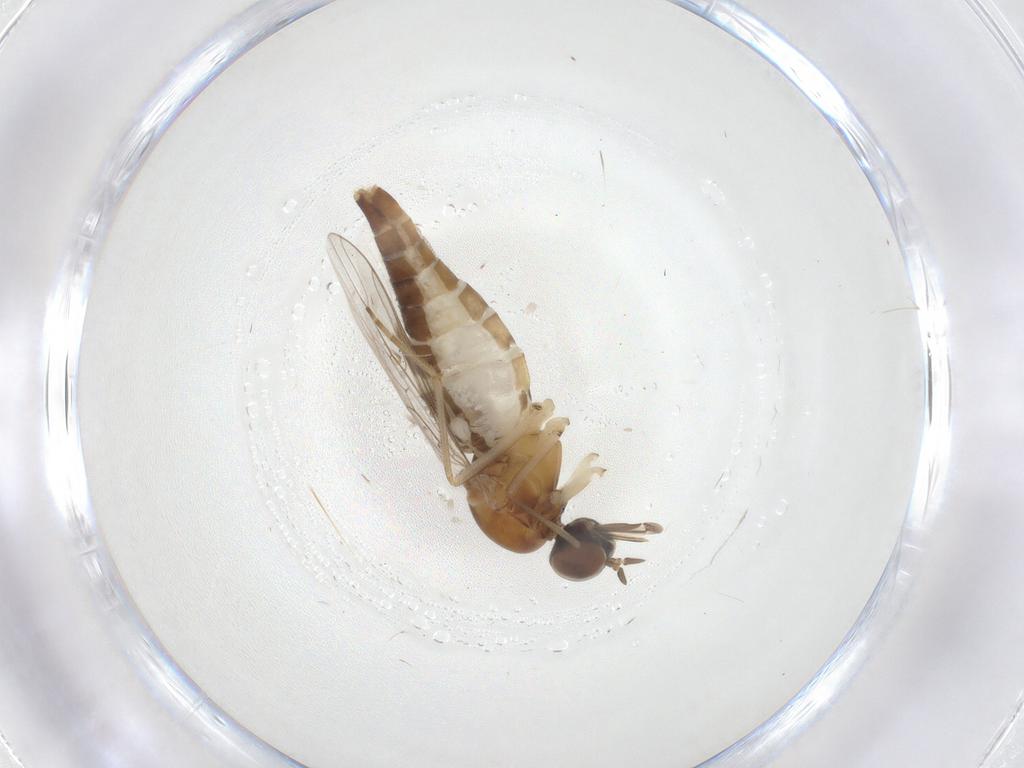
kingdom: Animalia
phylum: Arthropoda
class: Insecta
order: Diptera
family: Scenopinidae
